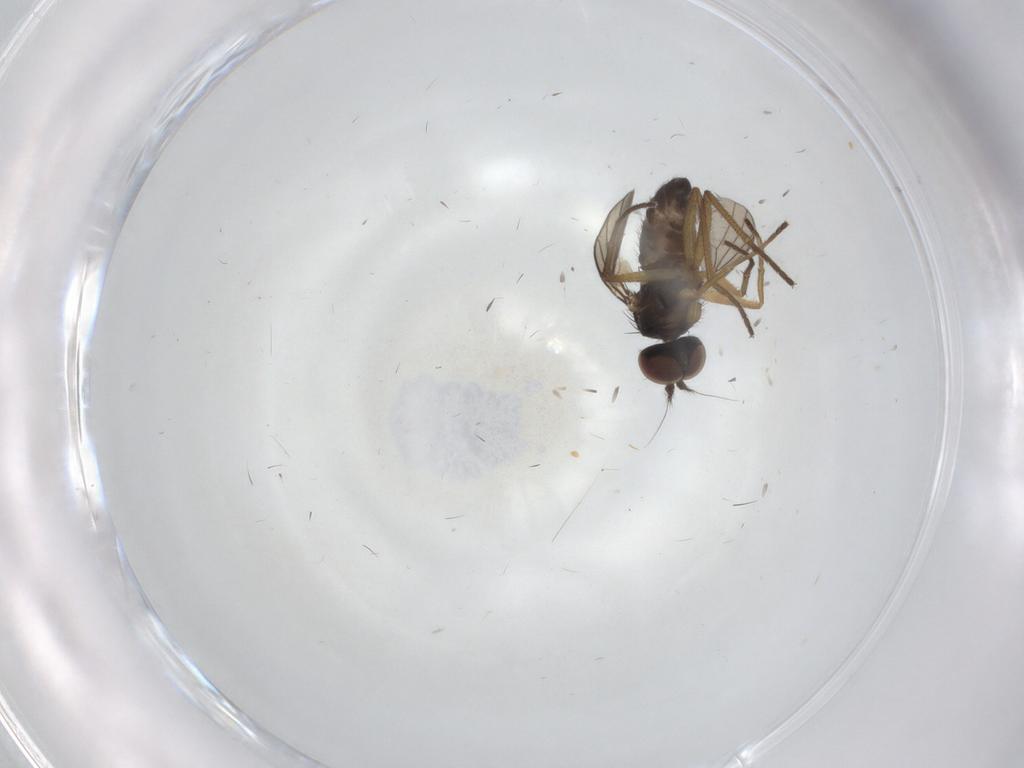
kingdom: Animalia
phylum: Arthropoda
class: Insecta
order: Diptera
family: Dolichopodidae
